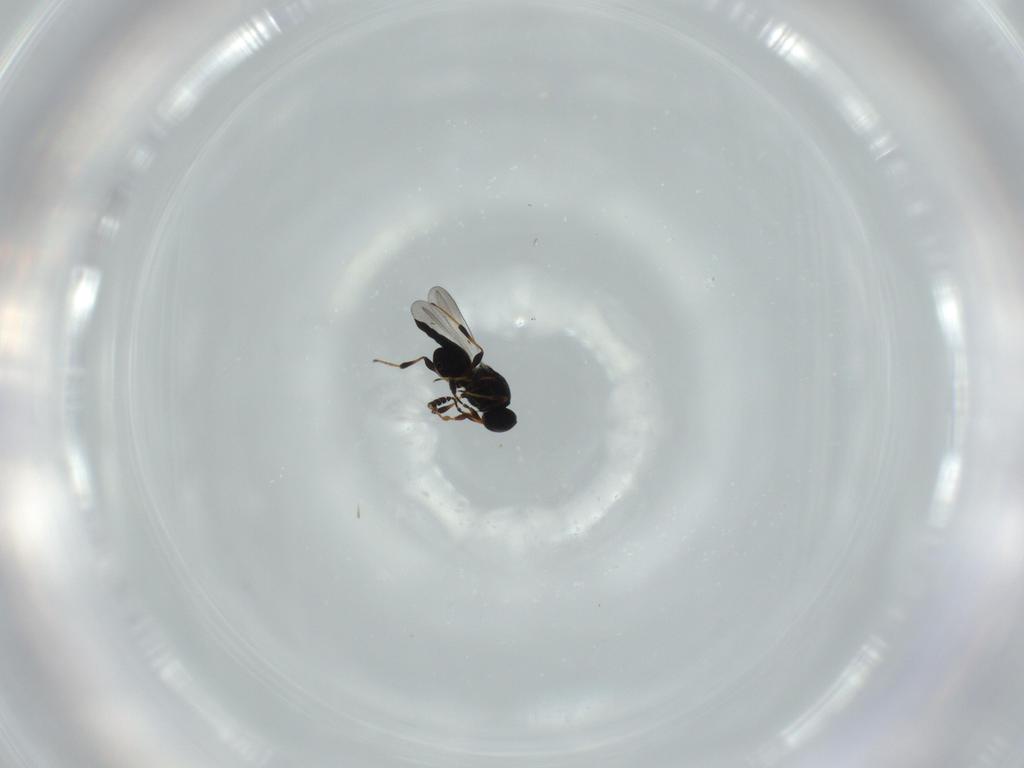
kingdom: Animalia
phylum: Arthropoda
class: Insecta
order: Hymenoptera
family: Platygastridae
